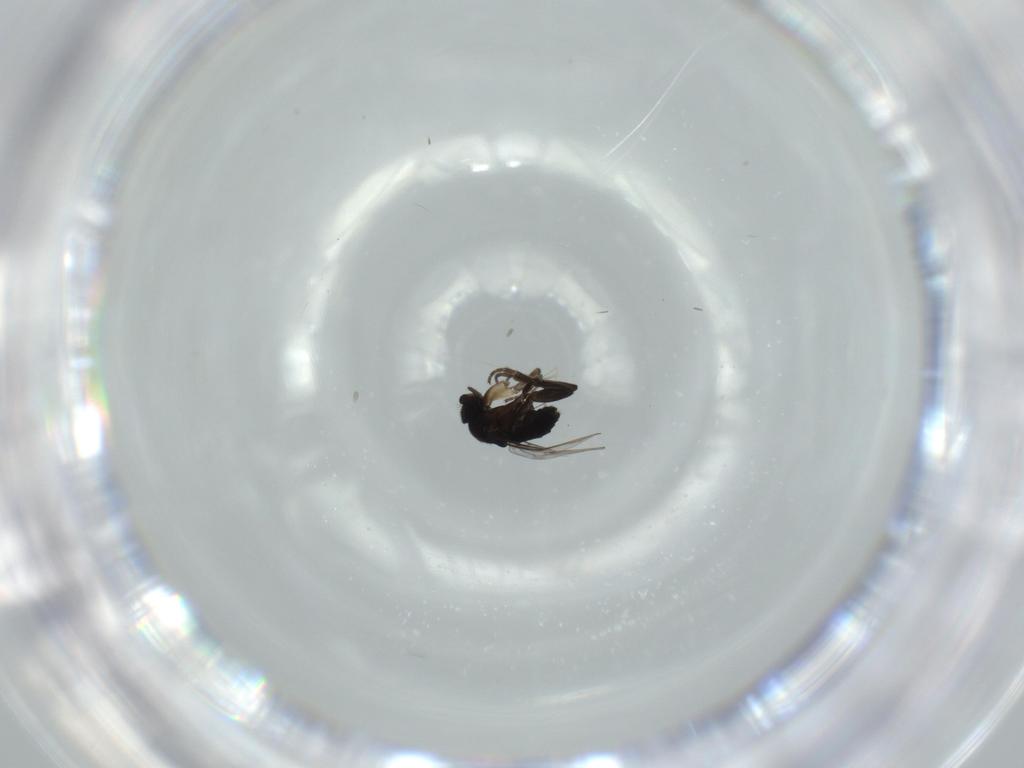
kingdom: Animalia
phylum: Arthropoda
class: Insecta
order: Diptera
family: Phoridae
